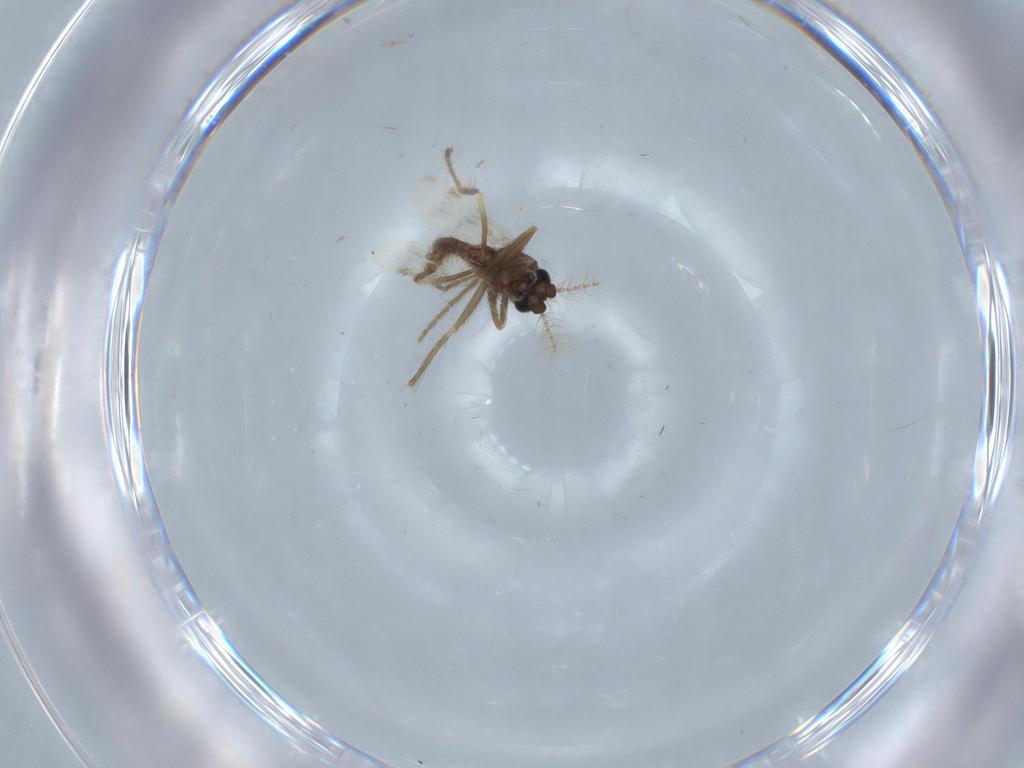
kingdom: Animalia
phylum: Arthropoda
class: Insecta
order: Diptera
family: Corethrellidae
